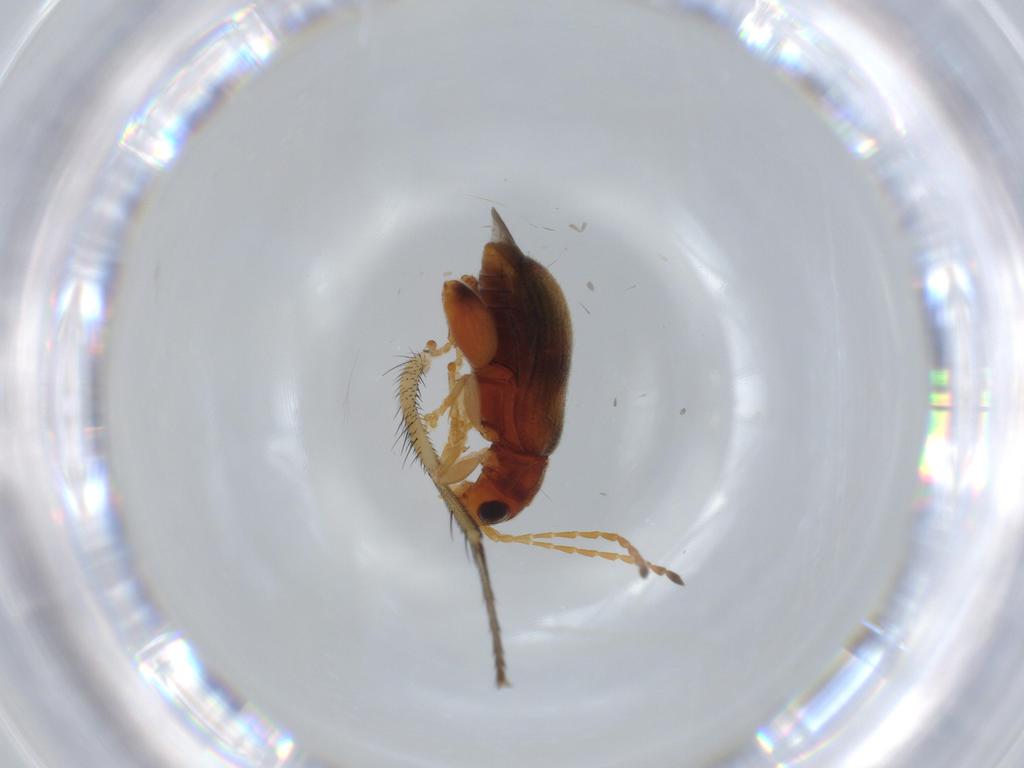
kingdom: Animalia
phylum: Arthropoda
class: Insecta
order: Coleoptera
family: Chrysomelidae
